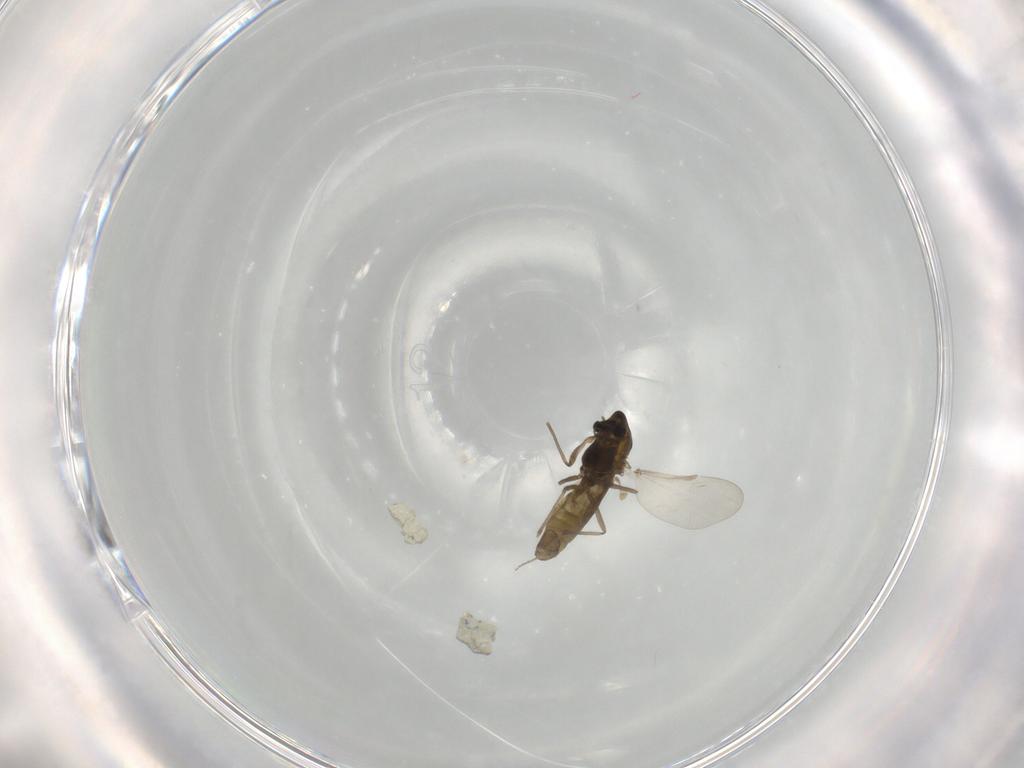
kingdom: Animalia
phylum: Arthropoda
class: Insecta
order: Diptera
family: Chironomidae
